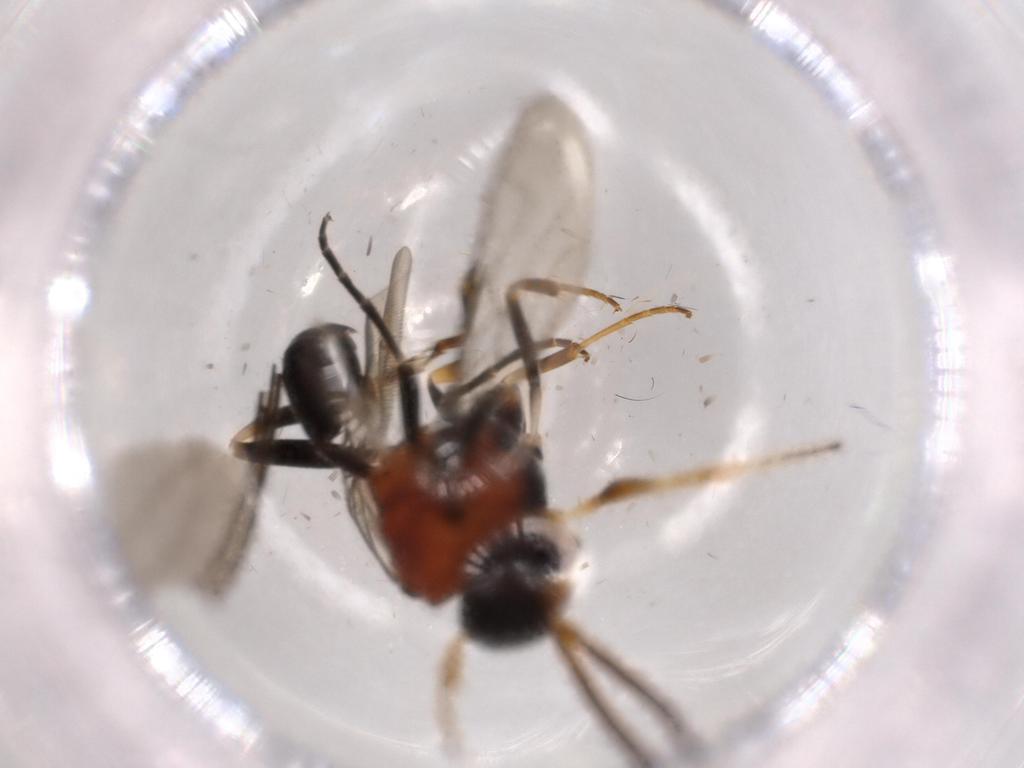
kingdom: Animalia
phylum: Arthropoda
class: Insecta
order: Hymenoptera
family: Evaniidae
